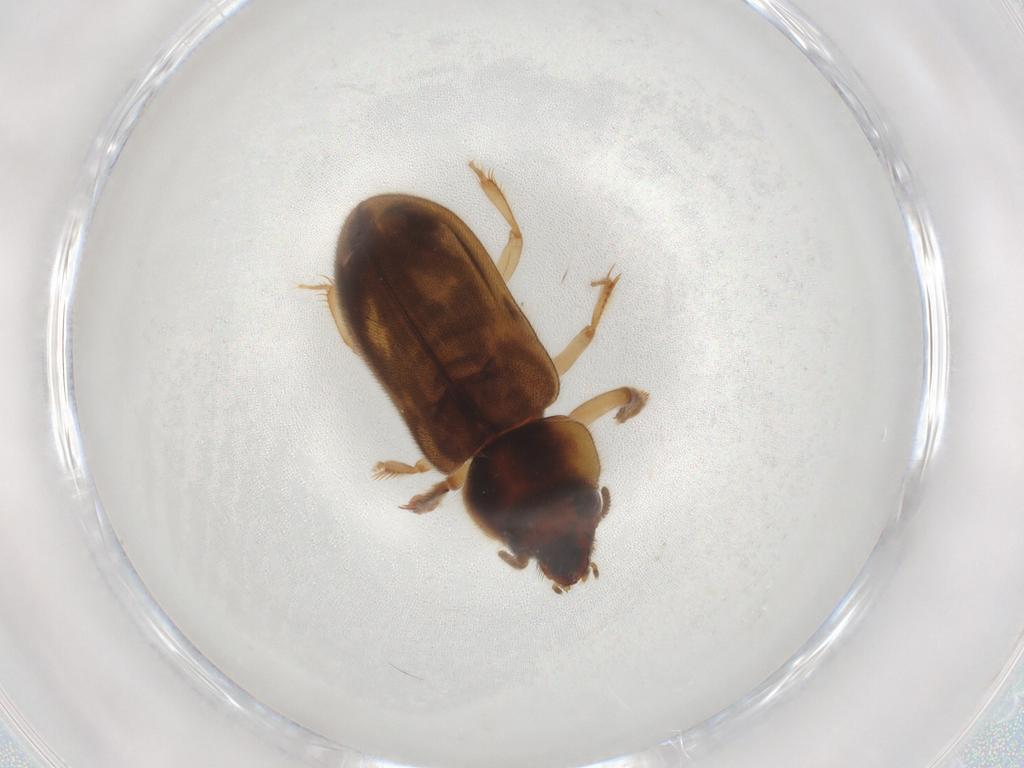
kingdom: Animalia
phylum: Arthropoda
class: Insecta
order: Coleoptera
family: Heteroceridae
